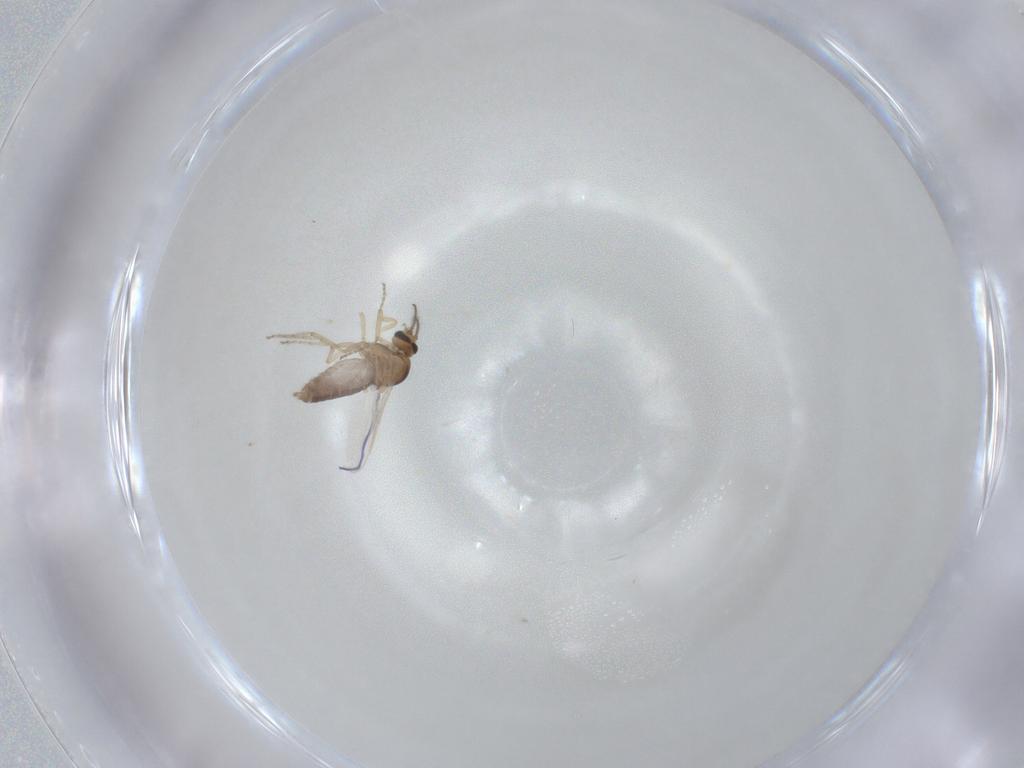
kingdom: Animalia
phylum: Arthropoda
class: Insecta
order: Diptera
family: Ceratopogonidae
